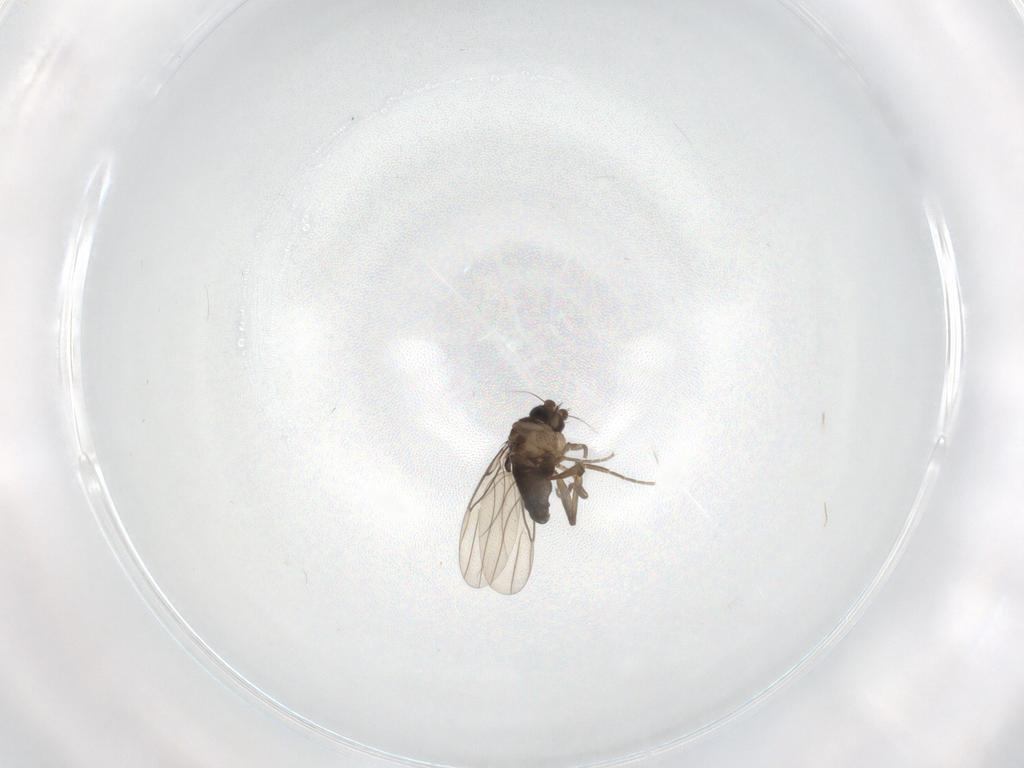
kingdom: Animalia
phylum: Arthropoda
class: Insecta
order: Diptera
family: Chironomidae
